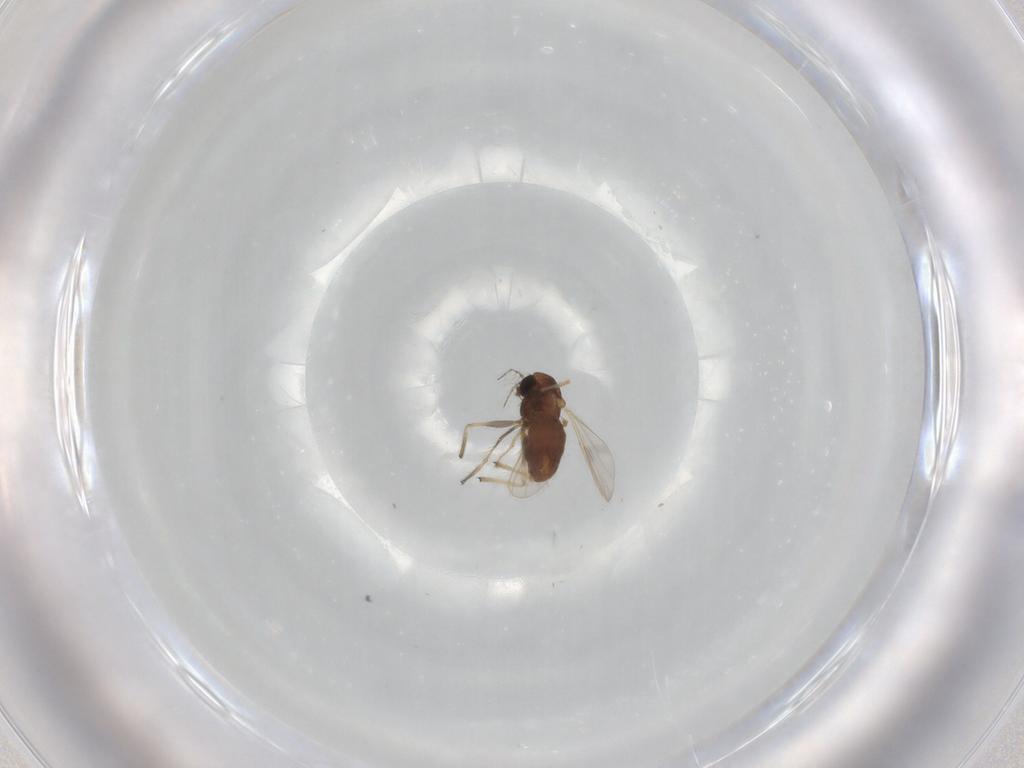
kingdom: Animalia
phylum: Arthropoda
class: Insecta
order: Diptera
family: Chironomidae
